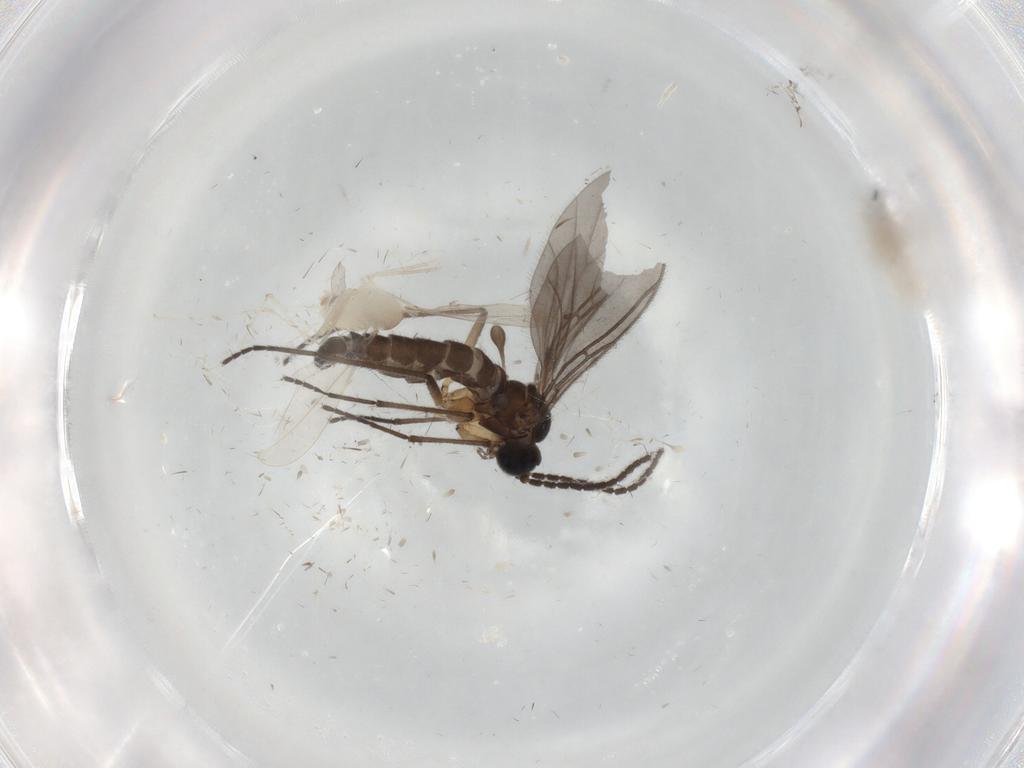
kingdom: Animalia
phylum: Arthropoda
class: Insecta
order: Diptera
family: Cecidomyiidae
